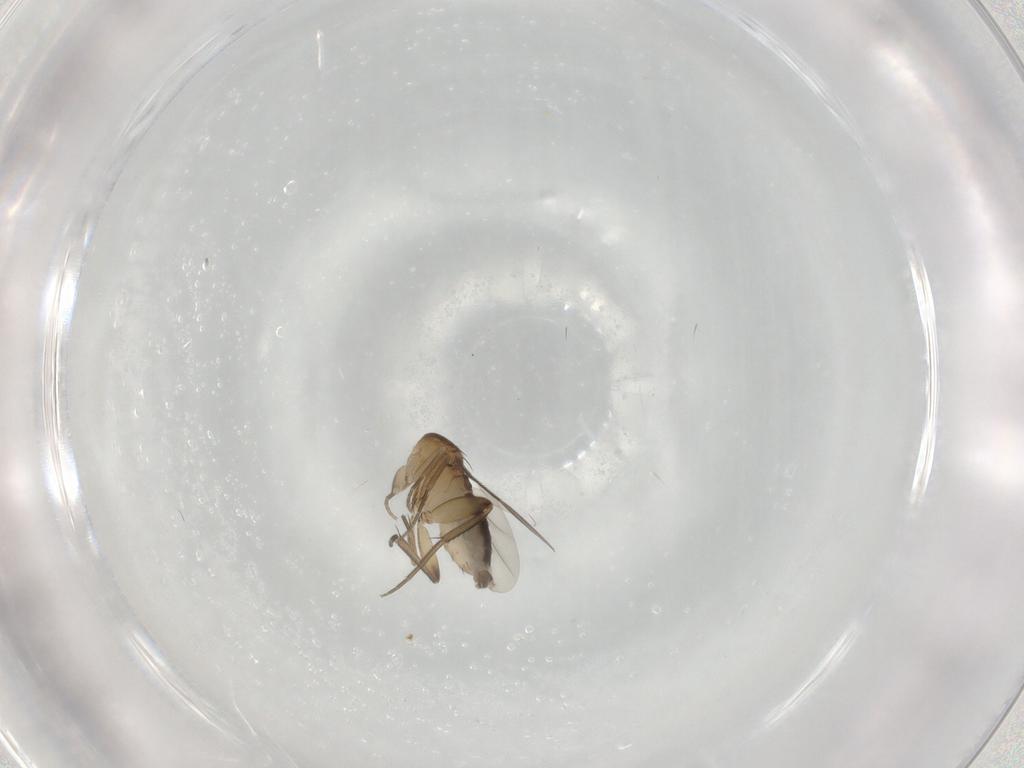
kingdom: Animalia
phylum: Arthropoda
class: Insecta
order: Diptera
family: Phoridae
